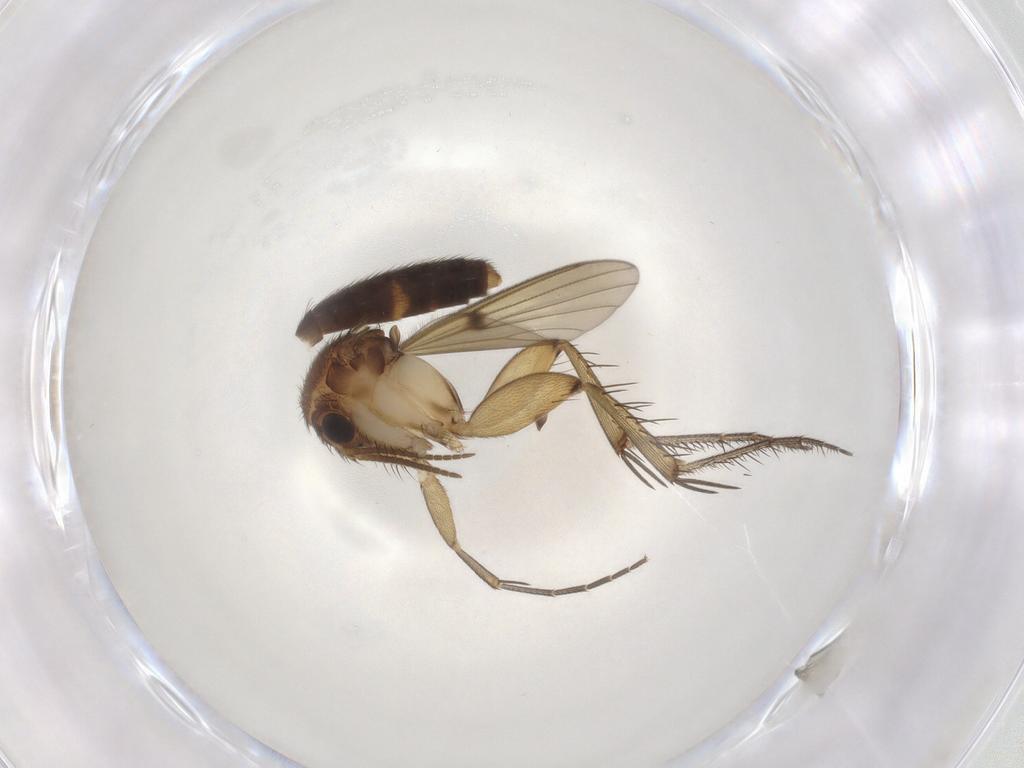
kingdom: Animalia
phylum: Arthropoda
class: Insecta
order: Diptera
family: Mycetophilidae
